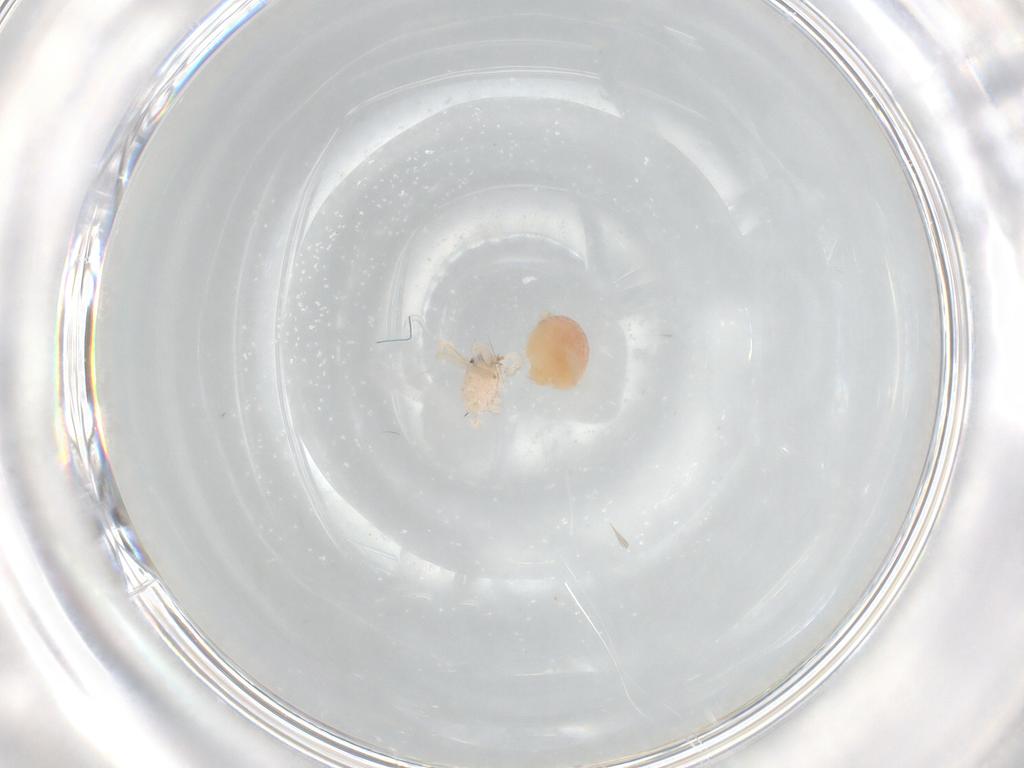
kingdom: Animalia
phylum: Arthropoda
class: Arachnida
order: Araneae
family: Oonopidae
